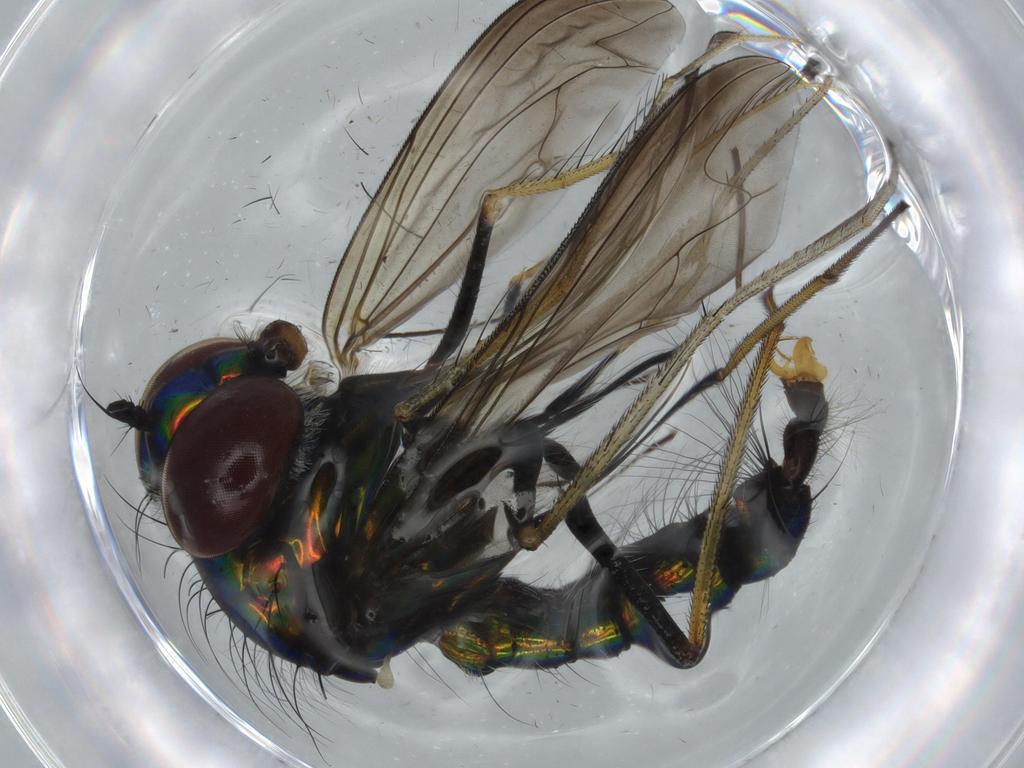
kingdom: Animalia
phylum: Arthropoda
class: Insecta
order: Diptera
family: Dolichopodidae
